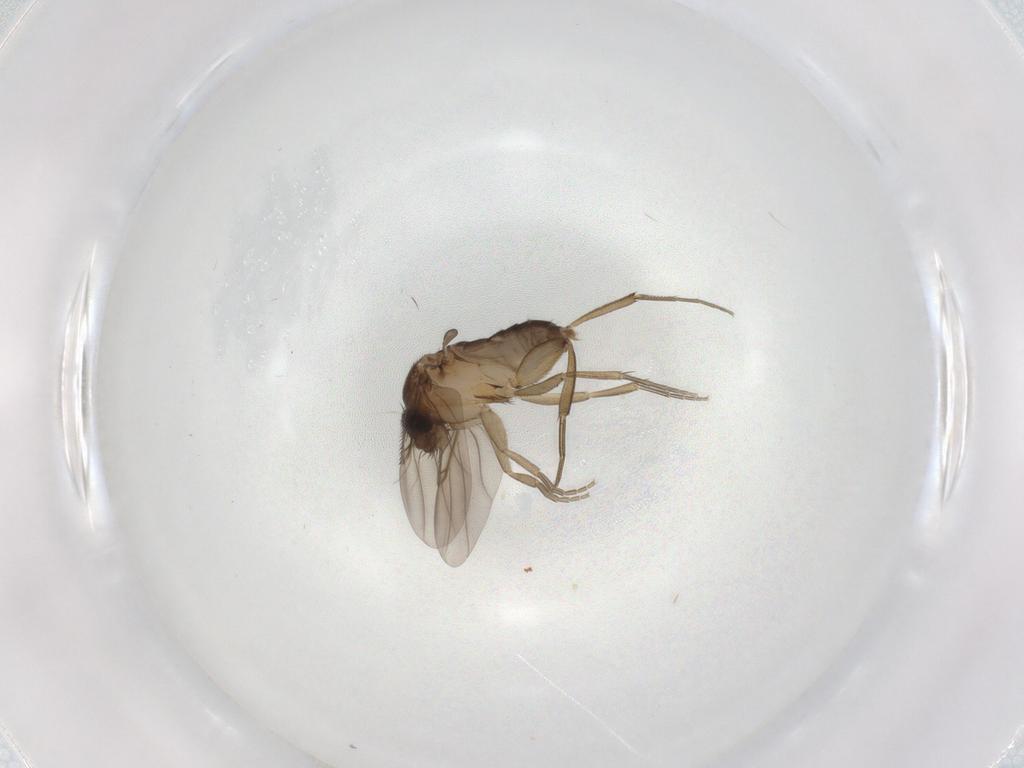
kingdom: Animalia
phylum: Arthropoda
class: Insecta
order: Diptera
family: Phoridae
